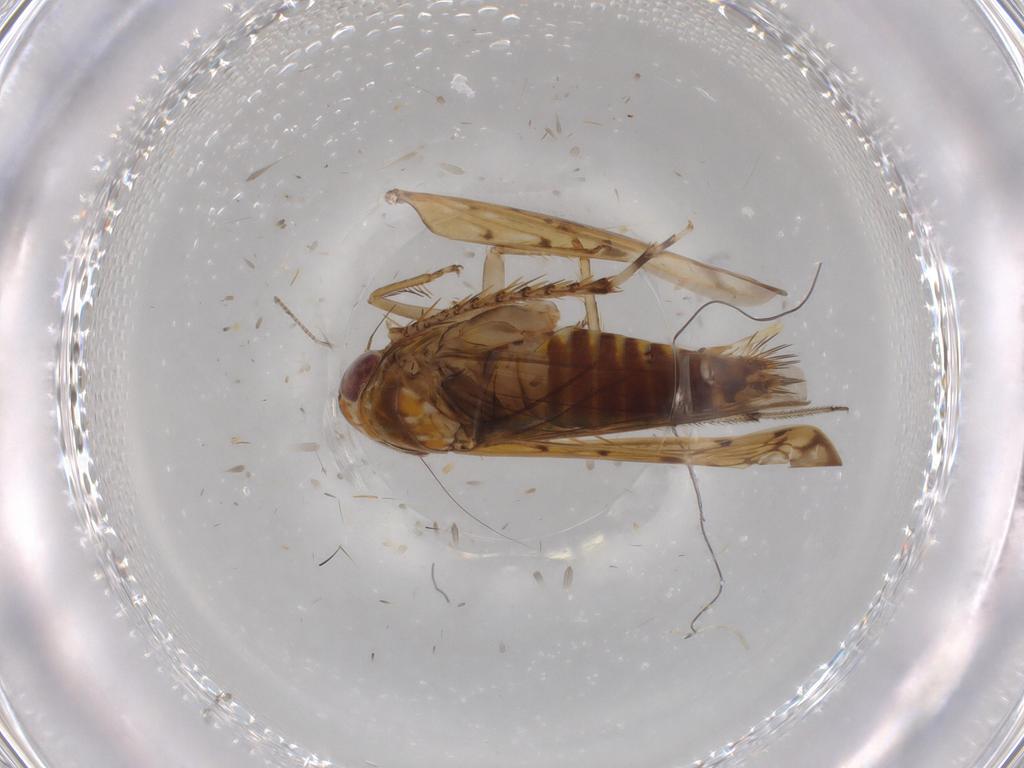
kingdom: Animalia
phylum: Arthropoda
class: Insecta
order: Hemiptera
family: Cicadellidae
